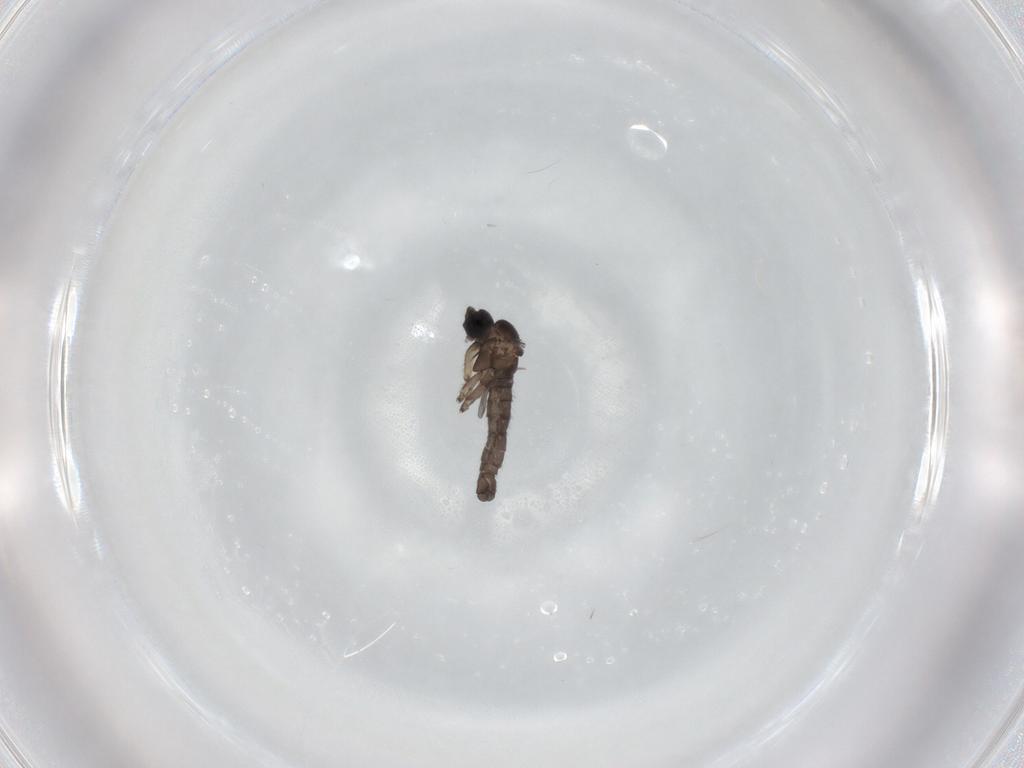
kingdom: Animalia
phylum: Arthropoda
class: Insecta
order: Diptera
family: Sciaridae
